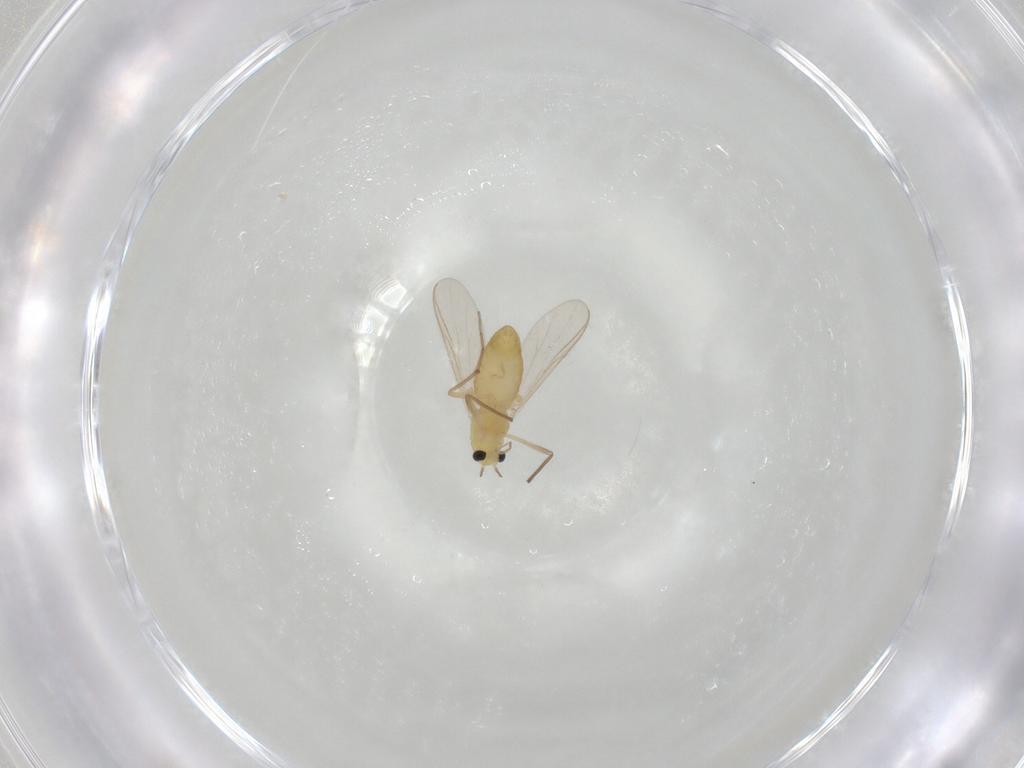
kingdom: Animalia
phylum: Arthropoda
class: Insecta
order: Diptera
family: Chironomidae
